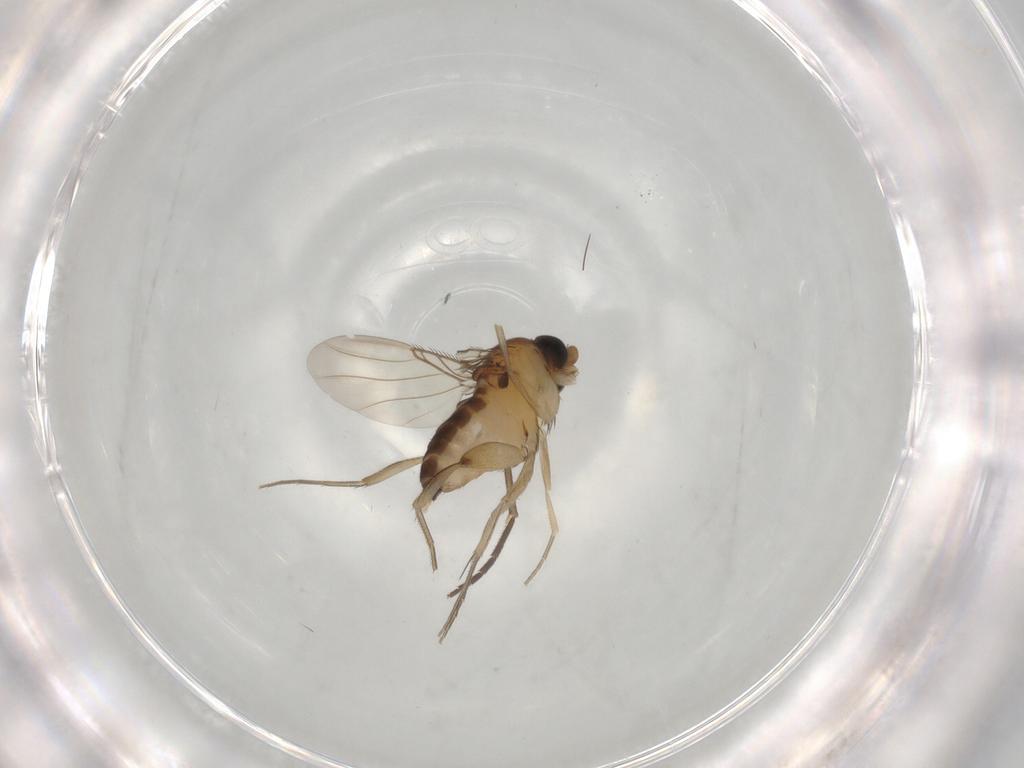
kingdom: Animalia
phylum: Arthropoda
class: Insecta
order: Diptera
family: Phoridae
